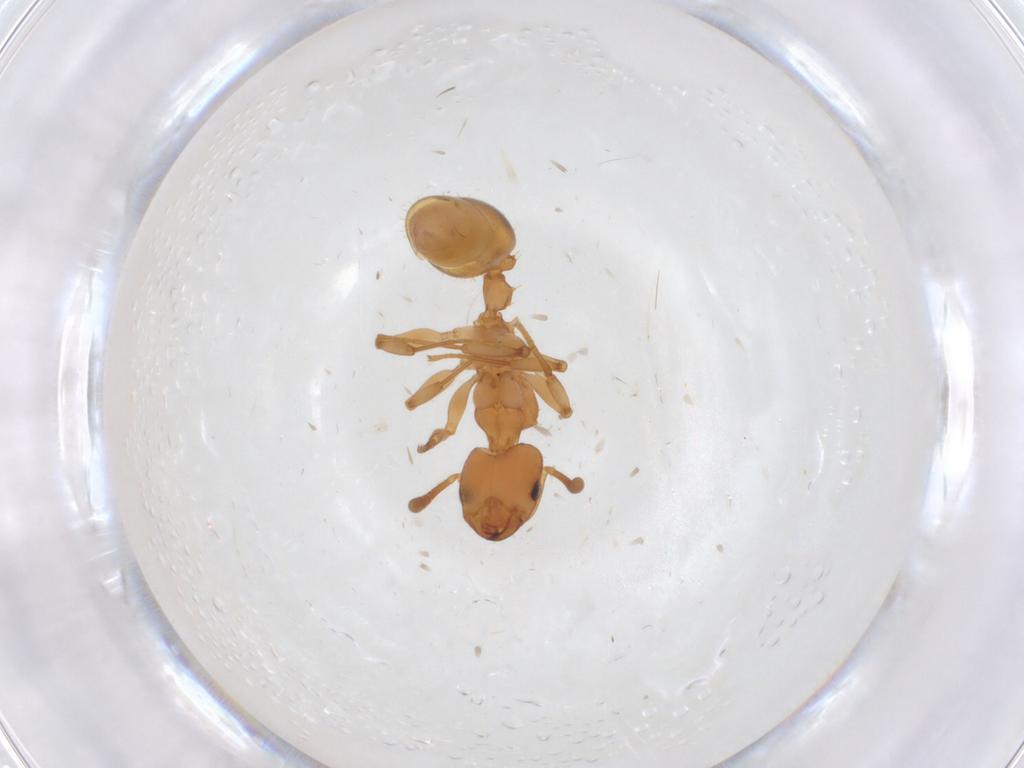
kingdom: Animalia
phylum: Arthropoda
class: Insecta
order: Hymenoptera
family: Formicidae
